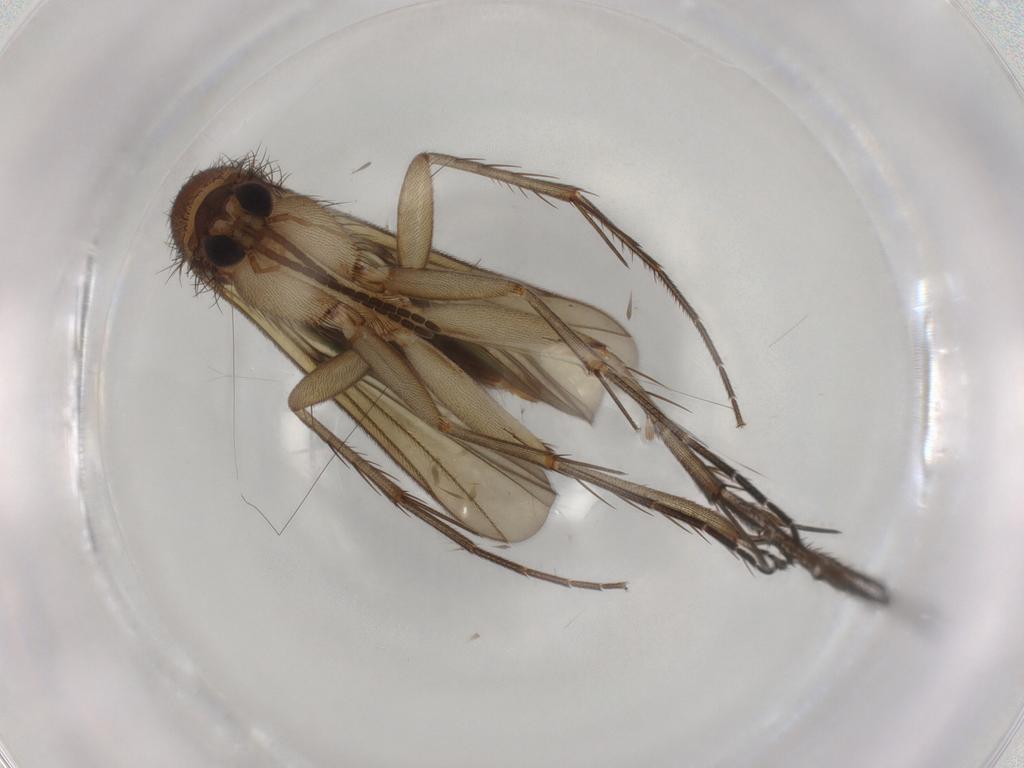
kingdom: Animalia
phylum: Arthropoda
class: Insecta
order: Diptera
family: Mycetophilidae
